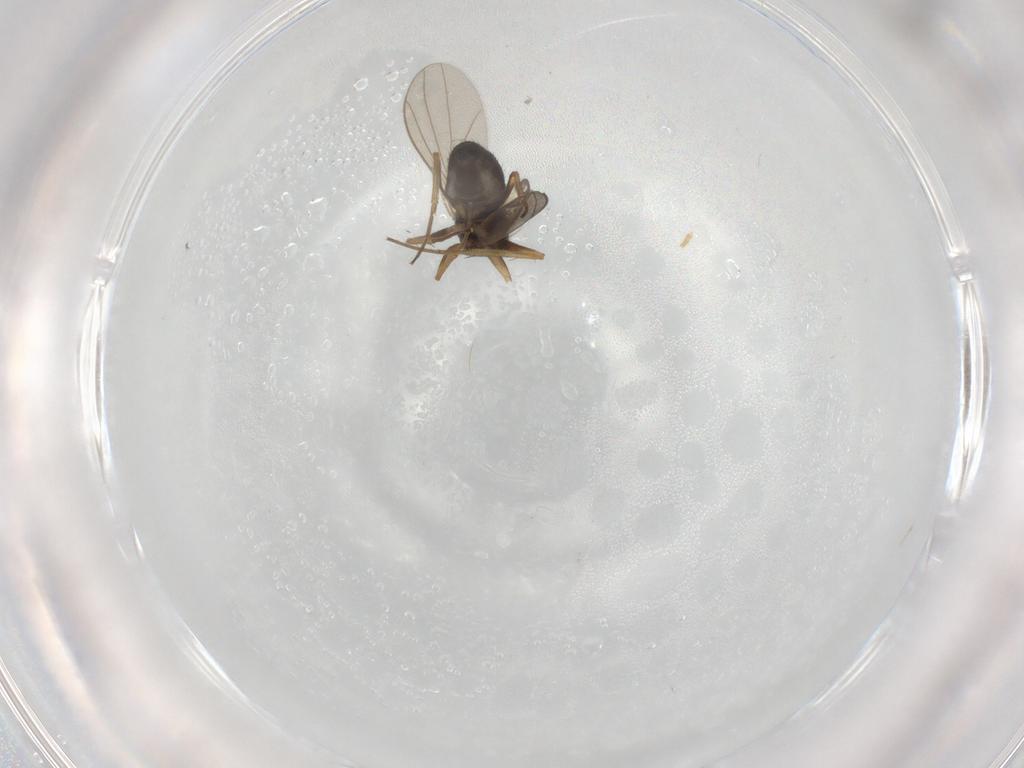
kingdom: Animalia
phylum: Arthropoda
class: Insecta
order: Diptera
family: Dolichopodidae
